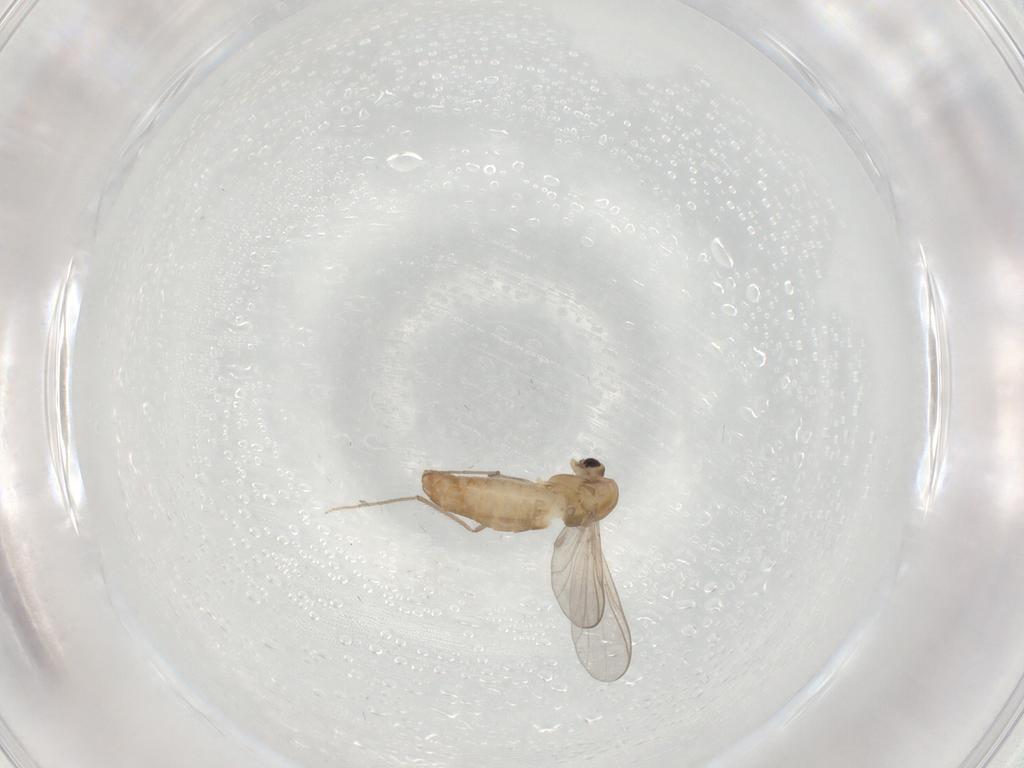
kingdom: Animalia
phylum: Arthropoda
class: Insecta
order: Diptera
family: Chironomidae
